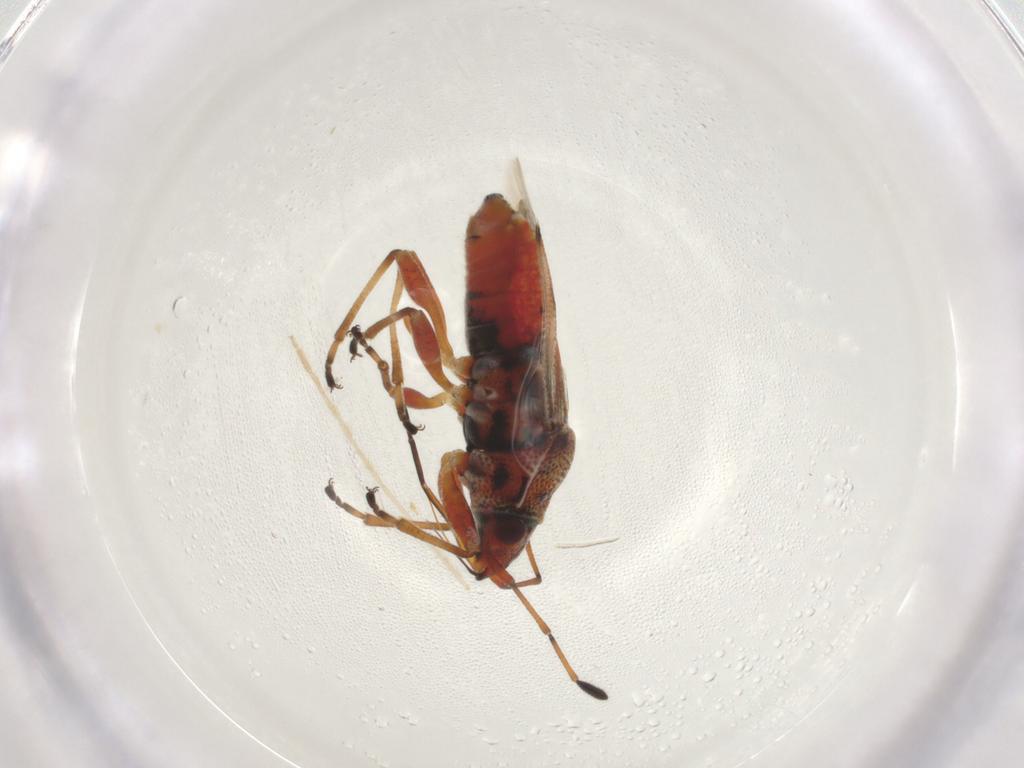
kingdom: Animalia
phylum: Arthropoda
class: Insecta
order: Hemiptera
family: Lygaeidae
